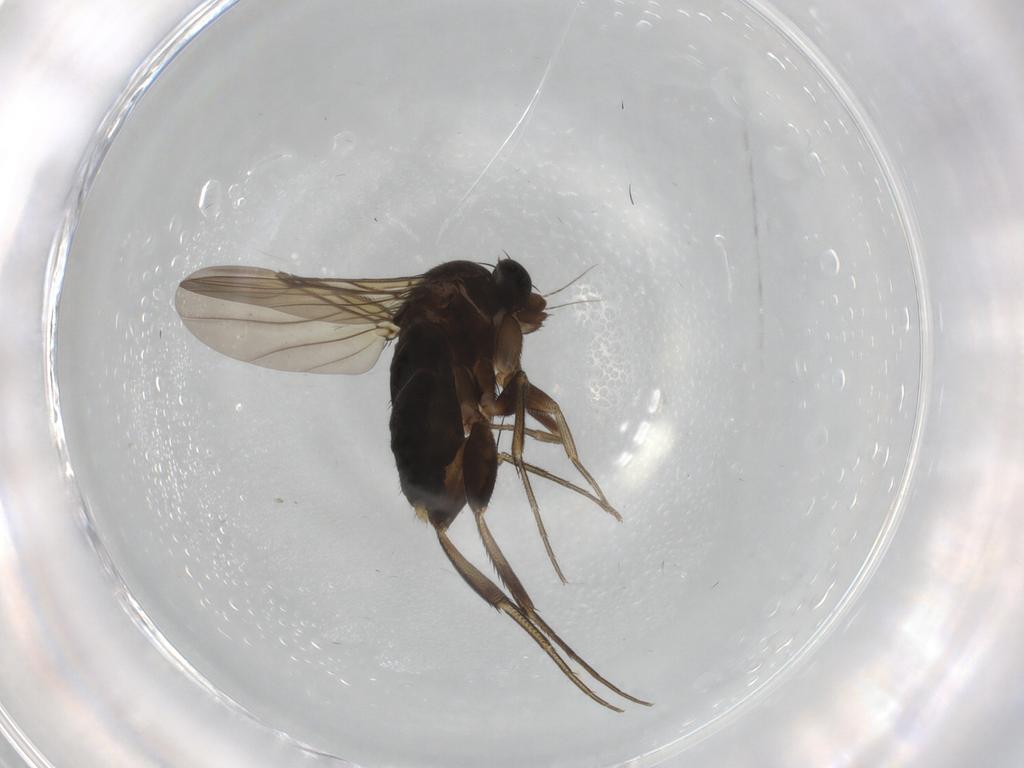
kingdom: Animalia
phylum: Arthropoda
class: Insecta
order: Diptera
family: Phoridae
